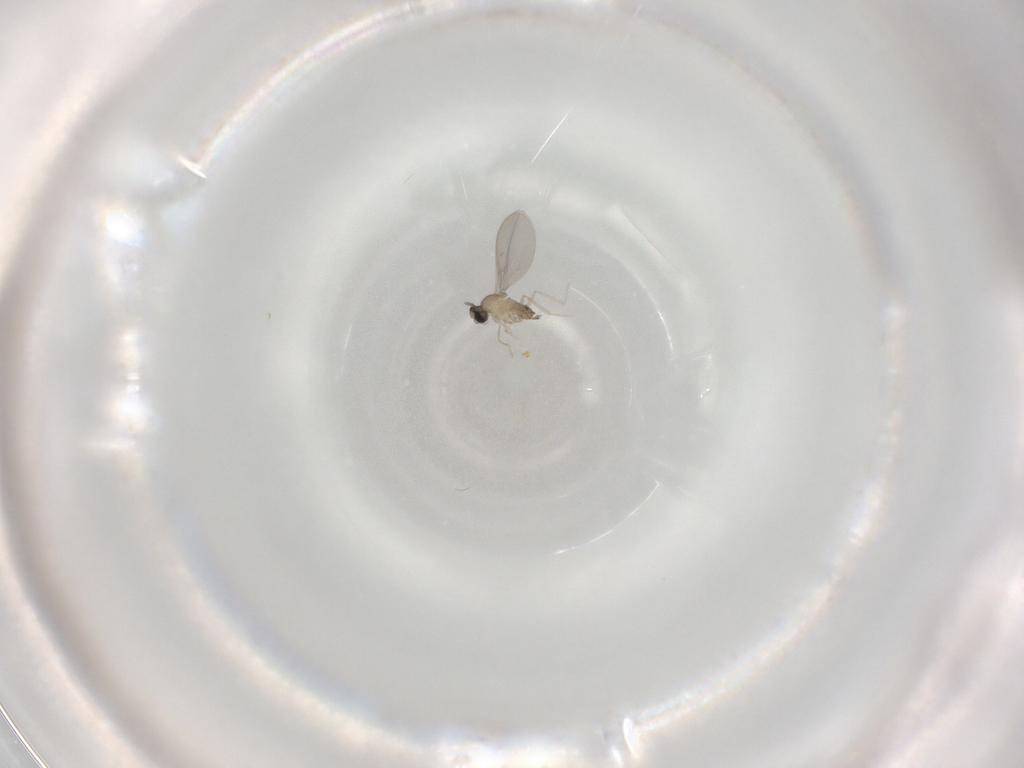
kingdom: Animalia
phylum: Arthropoda
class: Insecta
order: Diptera
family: Cecidomyiidae
